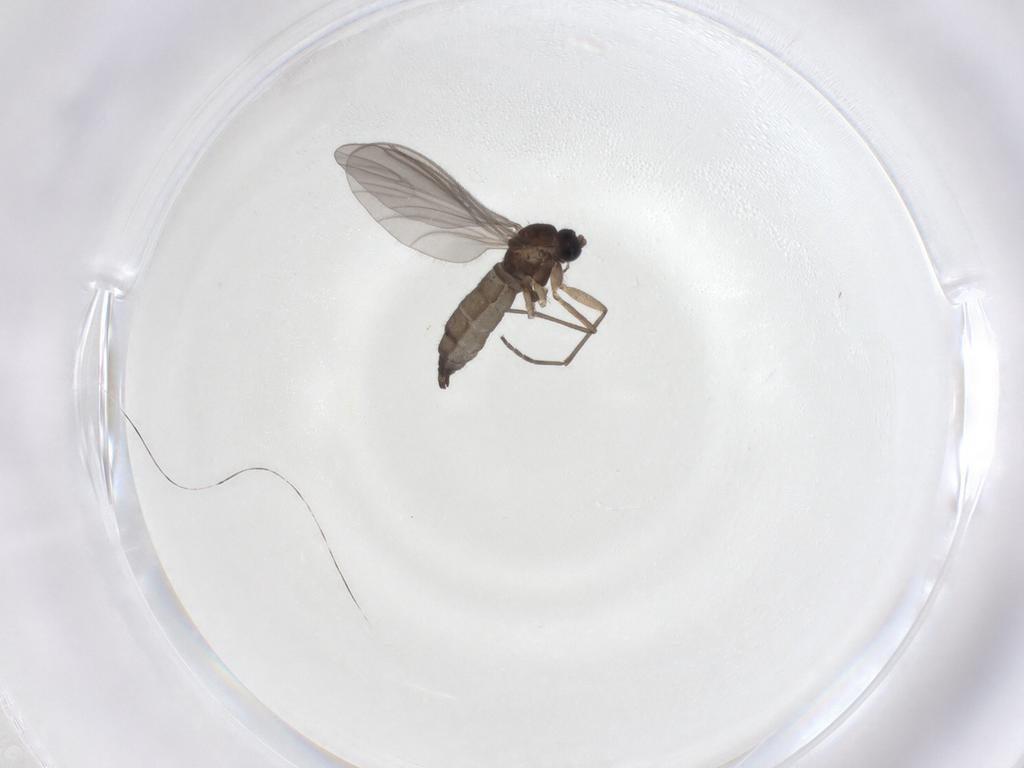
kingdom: Animalia
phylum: Arthropoda
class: Insecta
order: Diptera
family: Sciaridae
